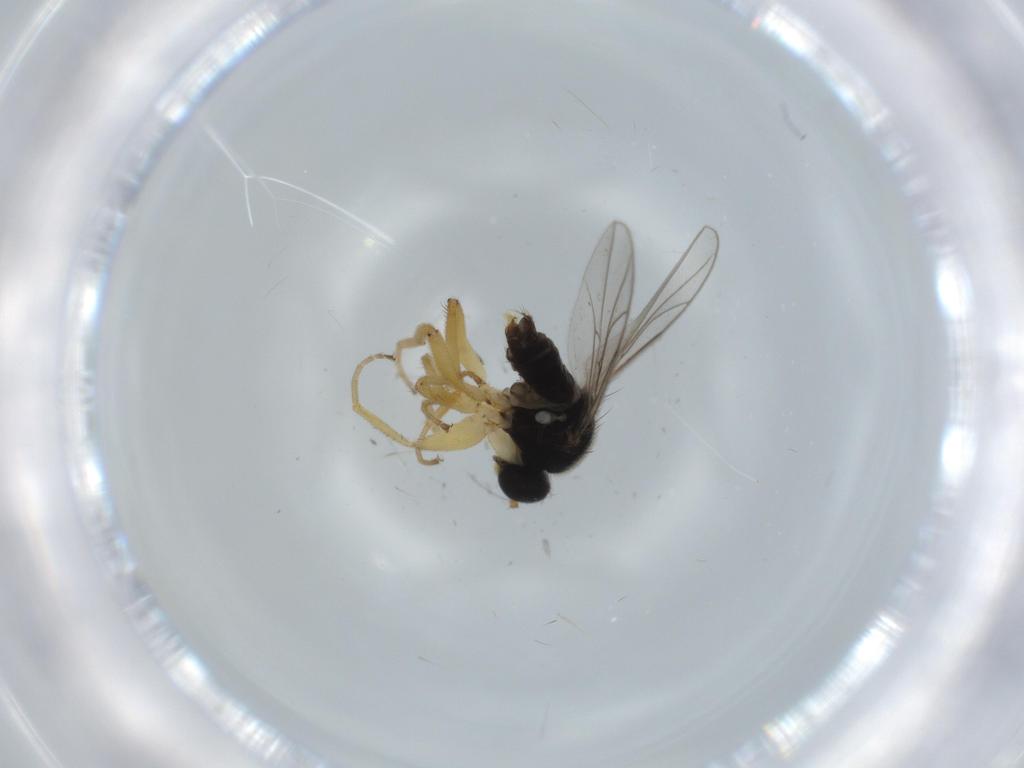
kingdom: Animalia
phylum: Arthropoda
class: Insecta
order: Diptera
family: Hybotidae
